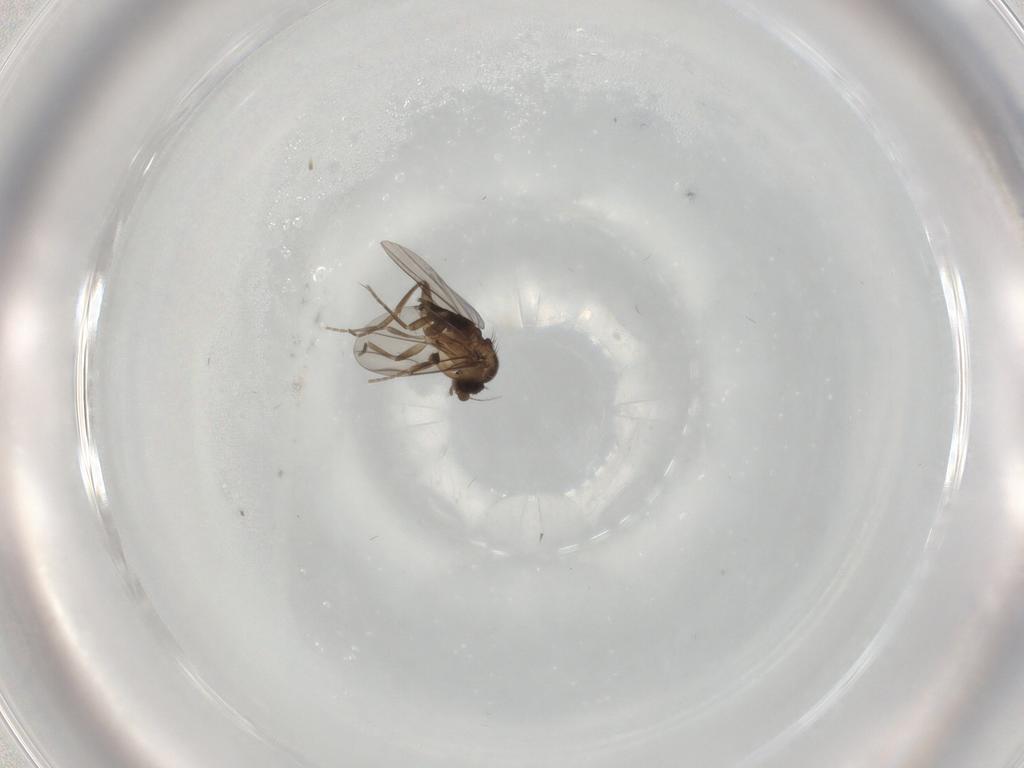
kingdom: Animalia
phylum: Arthropoda
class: Insecta
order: Diptera
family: Phoridae
